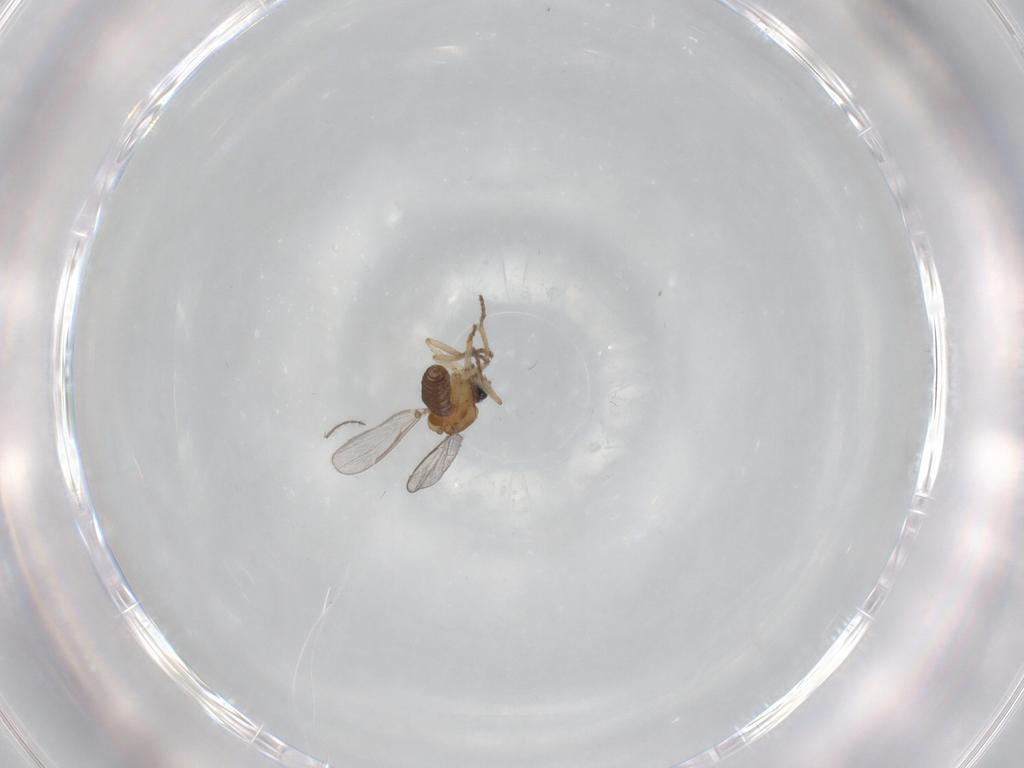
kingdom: Animalia
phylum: Arthropoda
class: Insecta
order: Diptera
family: Ceratopogonidae
